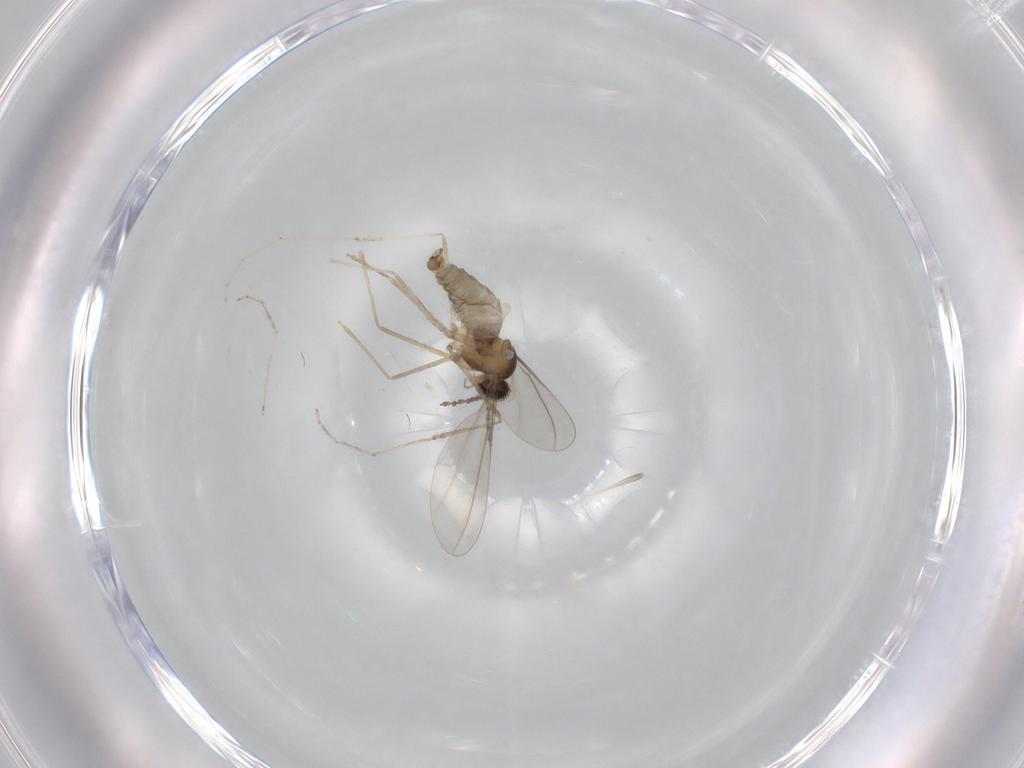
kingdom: Animalia
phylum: Arthropoda
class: Insecta
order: Diptera
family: Cecidomyiidae
